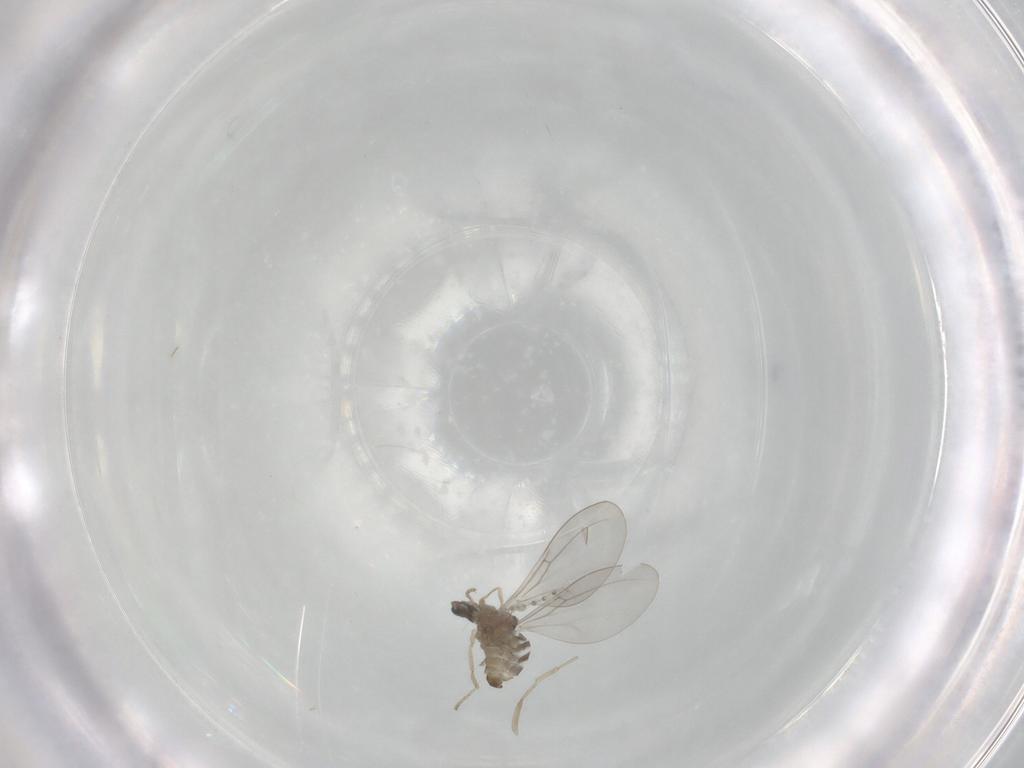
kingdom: Animalia
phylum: Arthropoda
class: Insecta
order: Diptera
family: Cecidomyiidae
